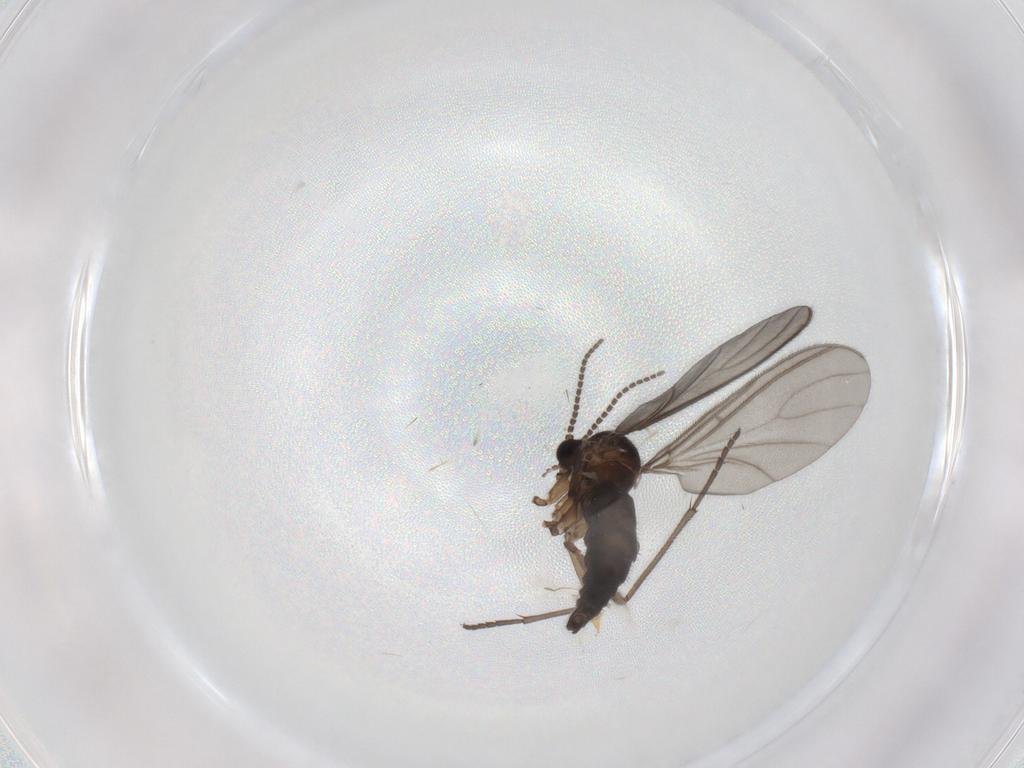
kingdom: Animalia
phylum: Arthropoda
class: Insecta
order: Diptera
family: Sciaridae
